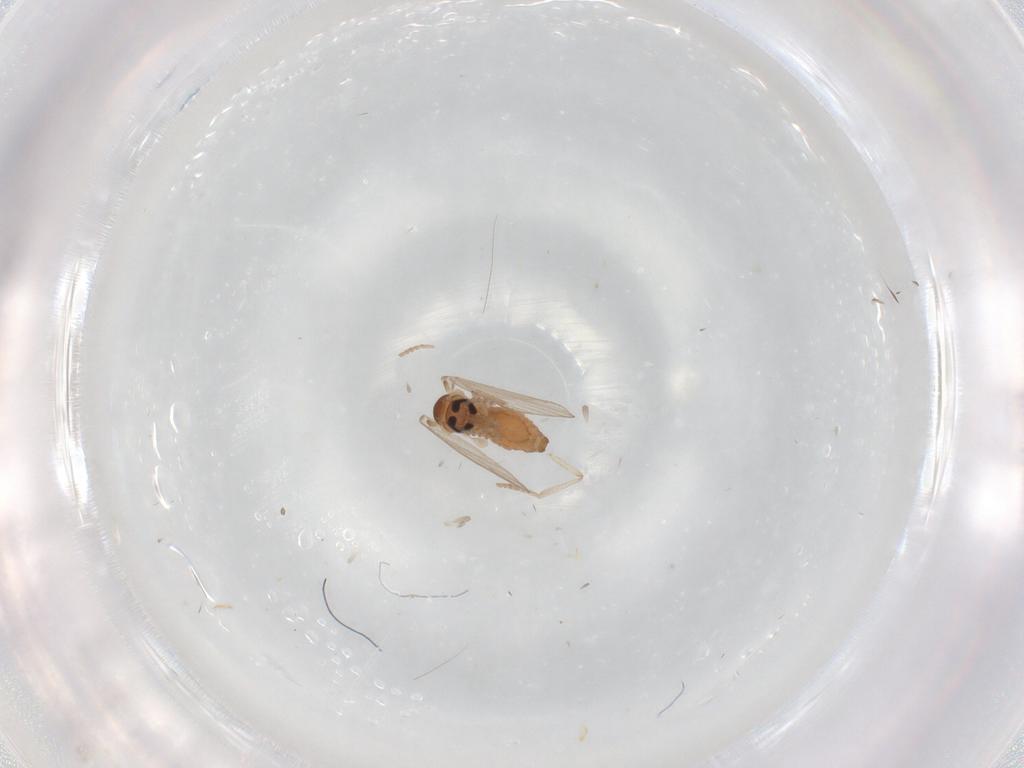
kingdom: Animalia
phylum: Arthropoda
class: Insecta
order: Diptera
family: Psychodidae
